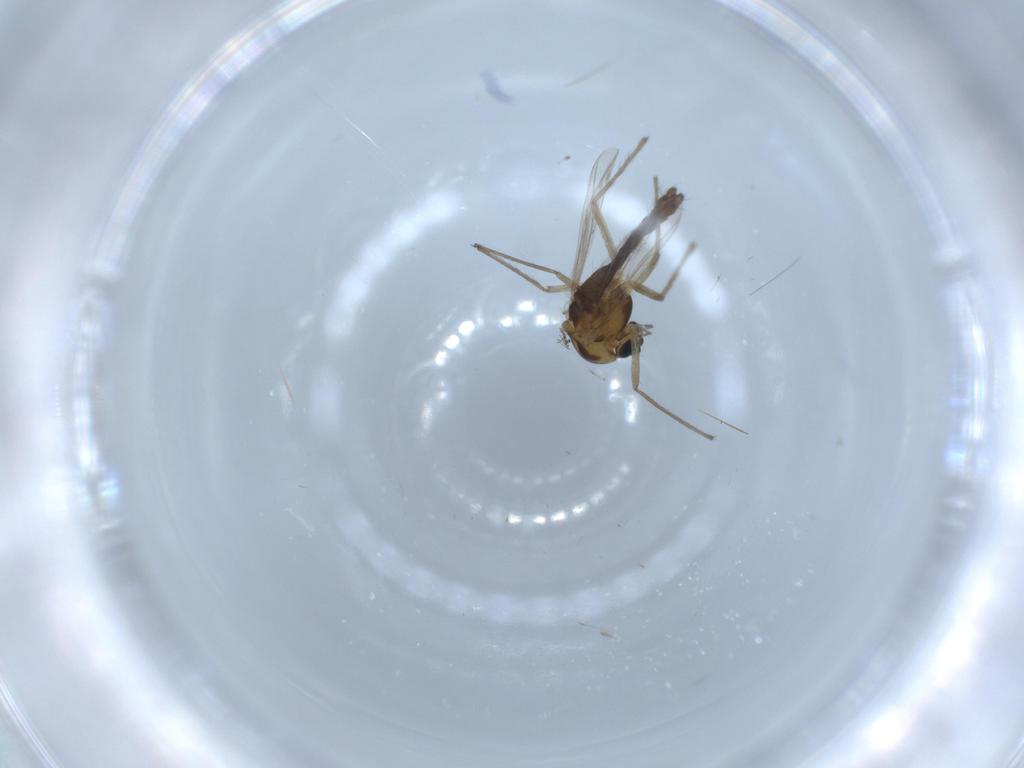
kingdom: Animalia
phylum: Arthropoda
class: Insecta
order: Diptera
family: Chironomidae
